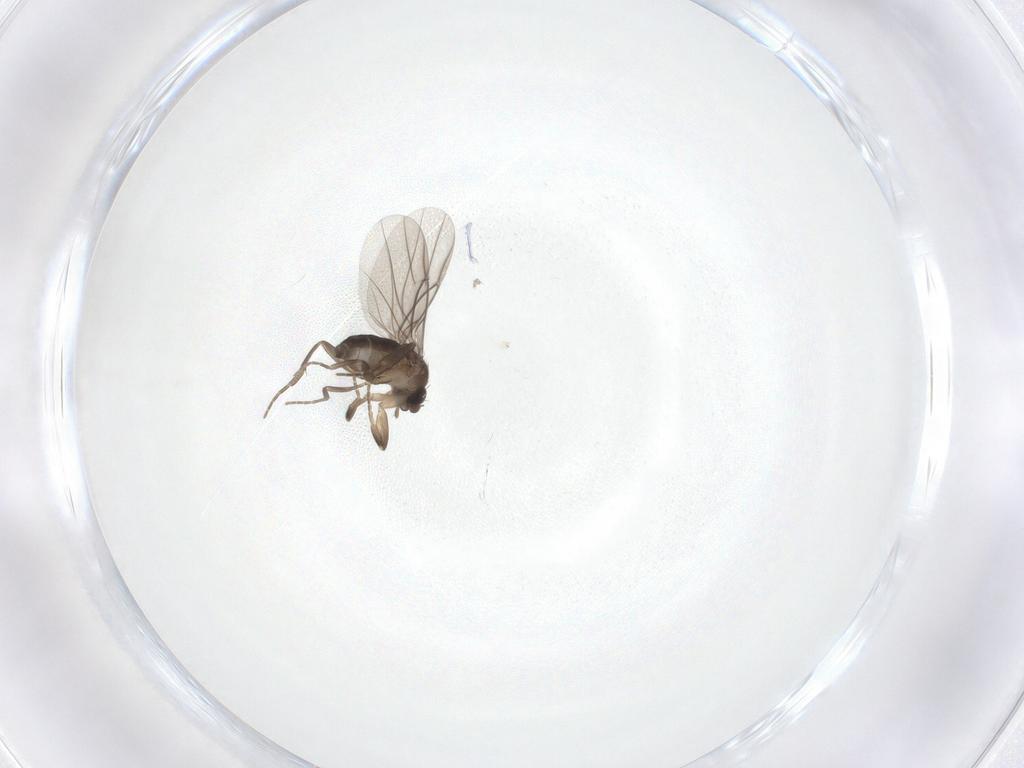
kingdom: Animalia
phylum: Arthropoda
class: Insecta
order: Diptera
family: Phoridae
